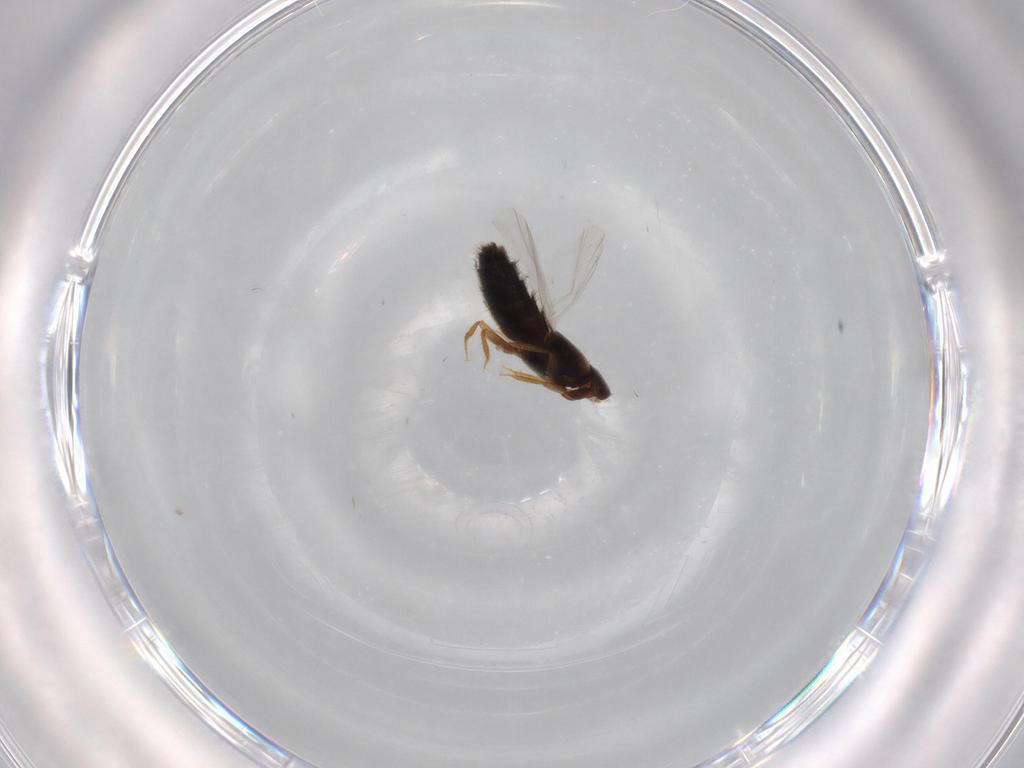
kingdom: Animalia
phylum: Arthropoda
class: Insecta
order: Coleoptera
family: Staphylinidae
